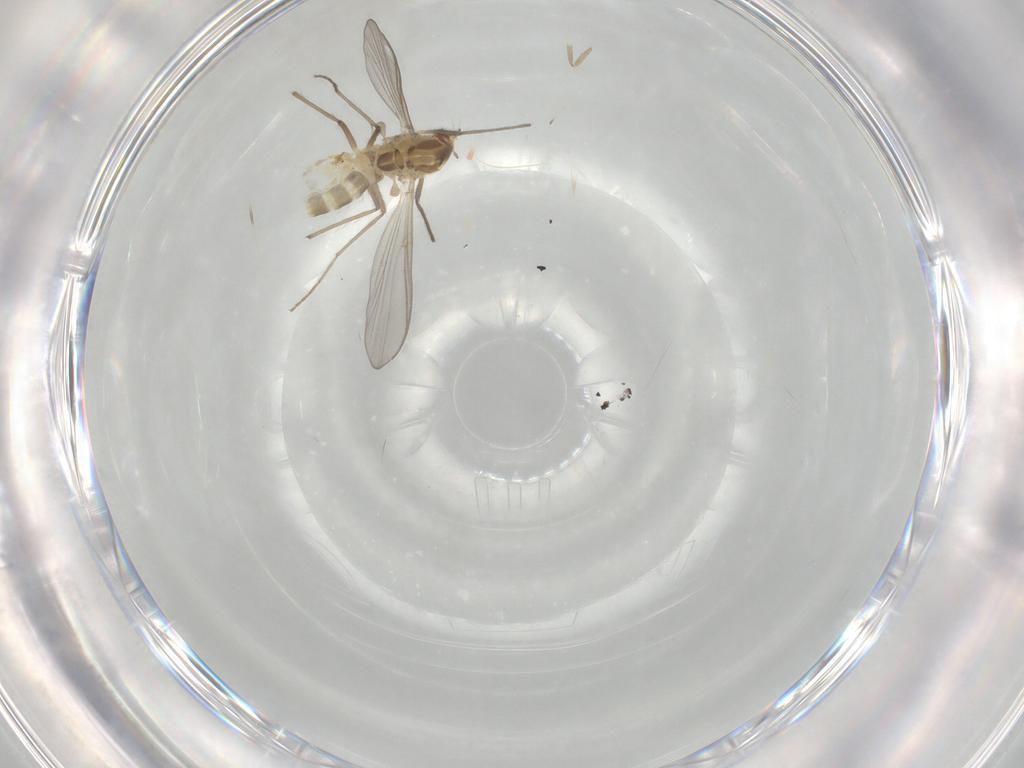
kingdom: Animalia
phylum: Arthropoda
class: Insecta
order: Diptera
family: Chironomidae
